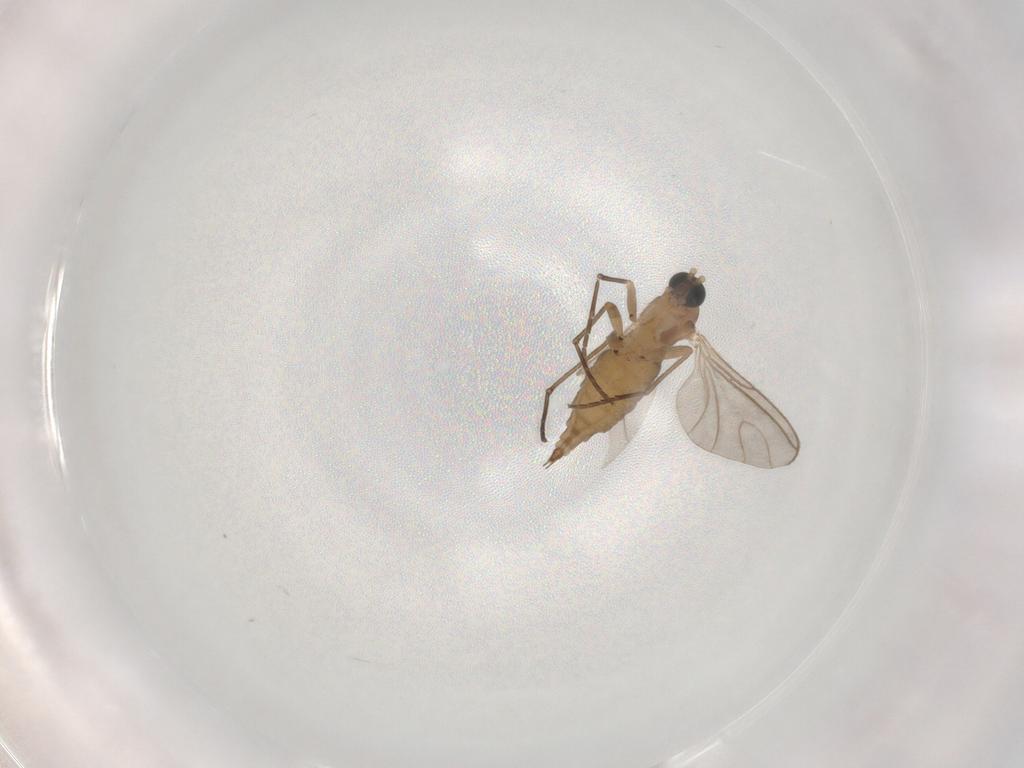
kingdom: Animalia
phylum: Arthropoda
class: Insecta
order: Diptera
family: Sciaridae
